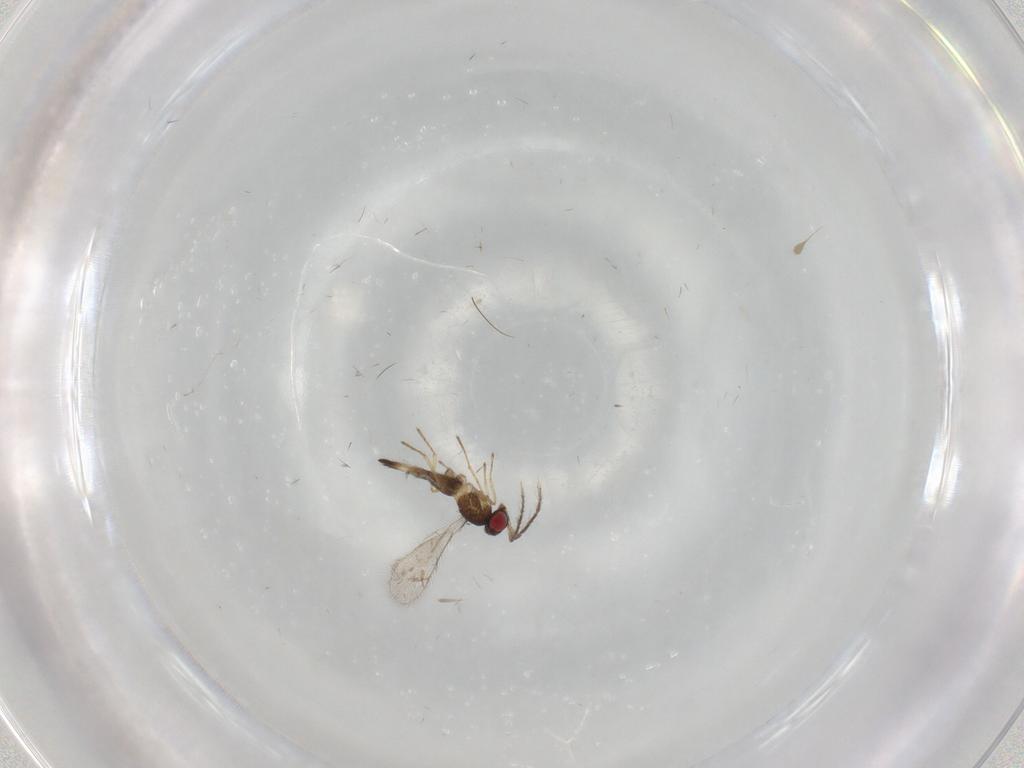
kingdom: Animalia
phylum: Arthropoda
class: Insecta
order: Hymenoptera
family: Eulophidae
